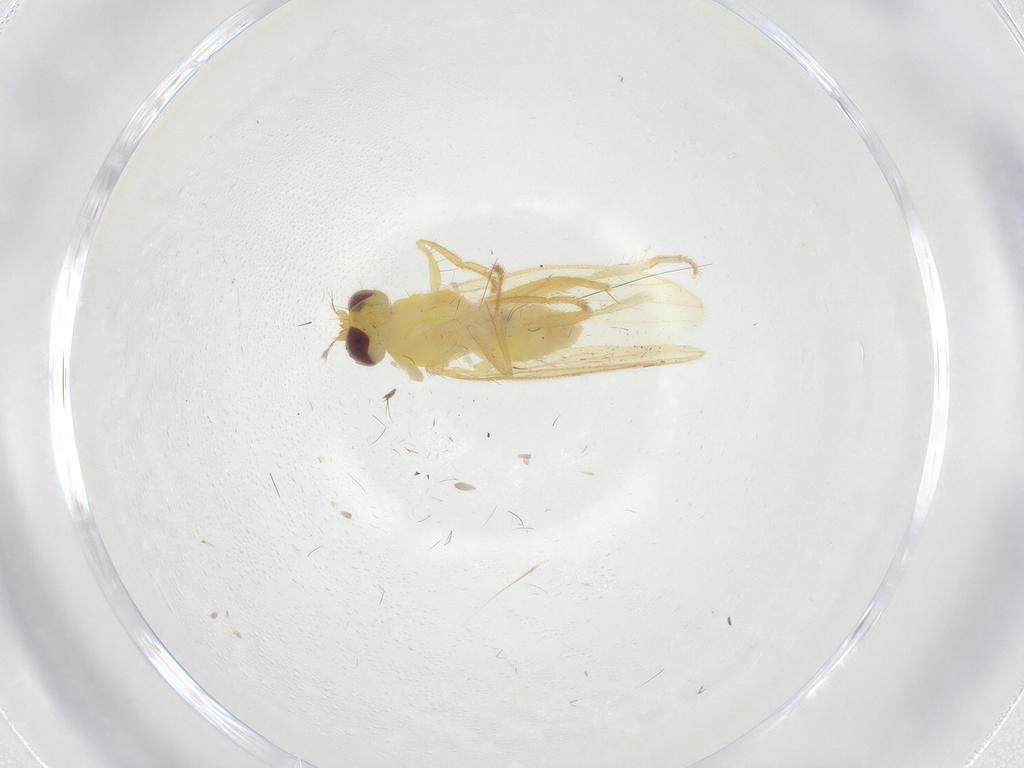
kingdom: Animalia
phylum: Arthropoda
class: Insecta
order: Diptera
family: Periscelididae
